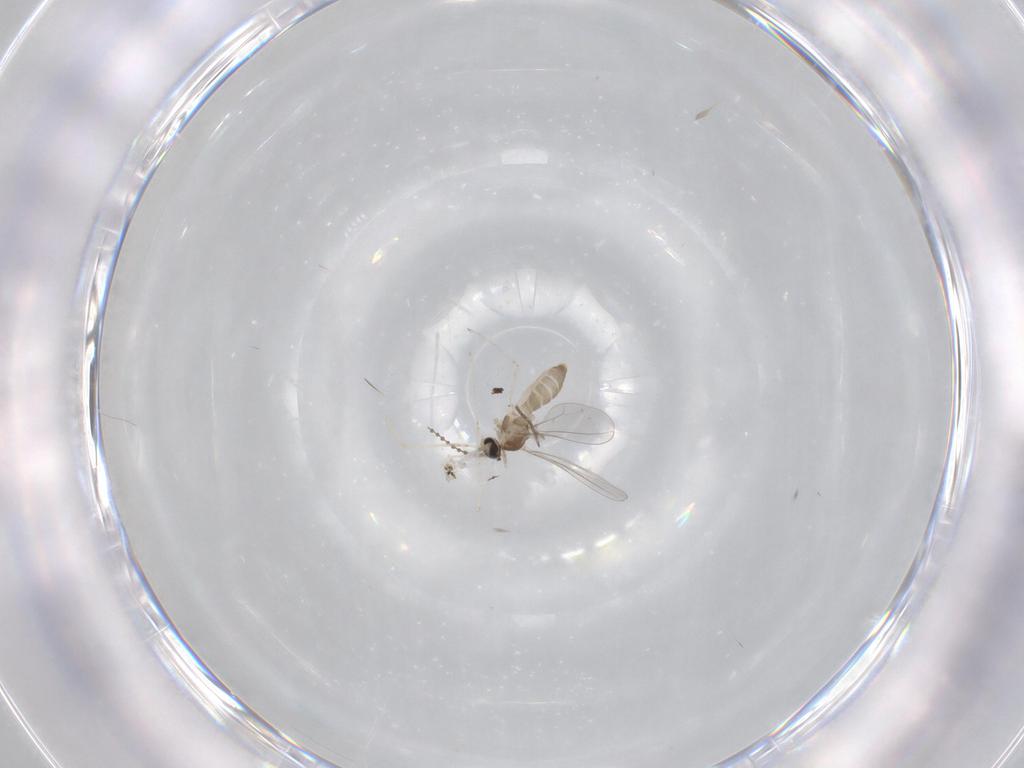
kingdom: Animalia
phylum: Arthropoda
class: Insecta
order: Diptera
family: Cecidomyiidae
